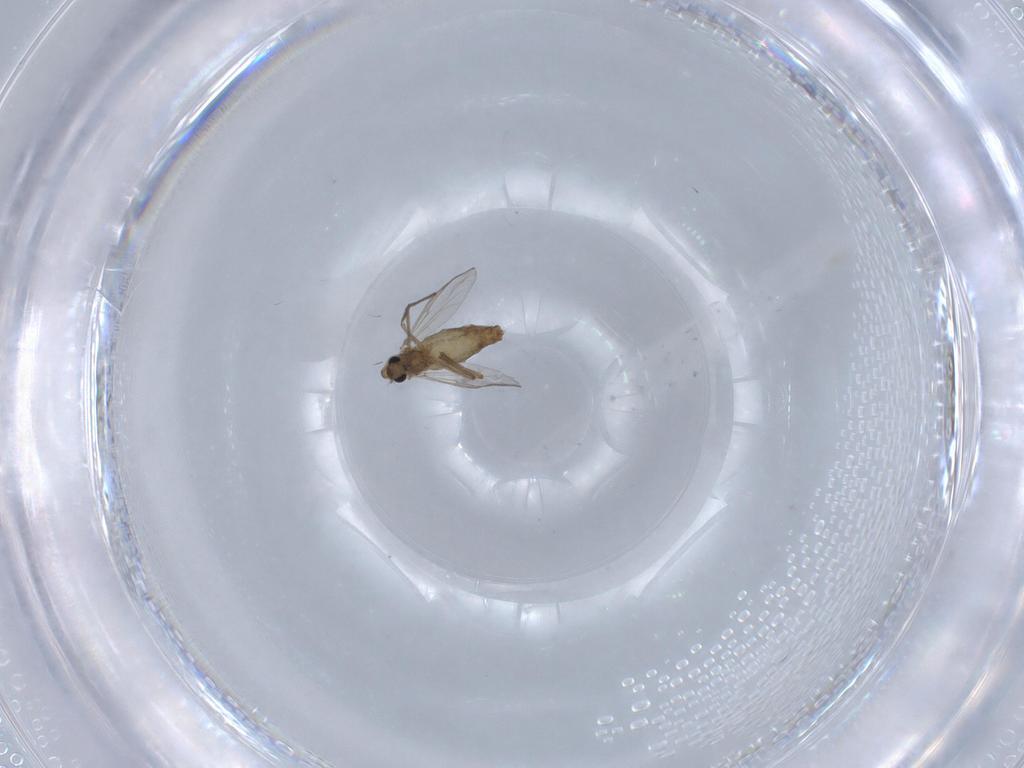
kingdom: Animalia
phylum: Arthropoda
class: Insecta
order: Diptera
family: Chironomidae
